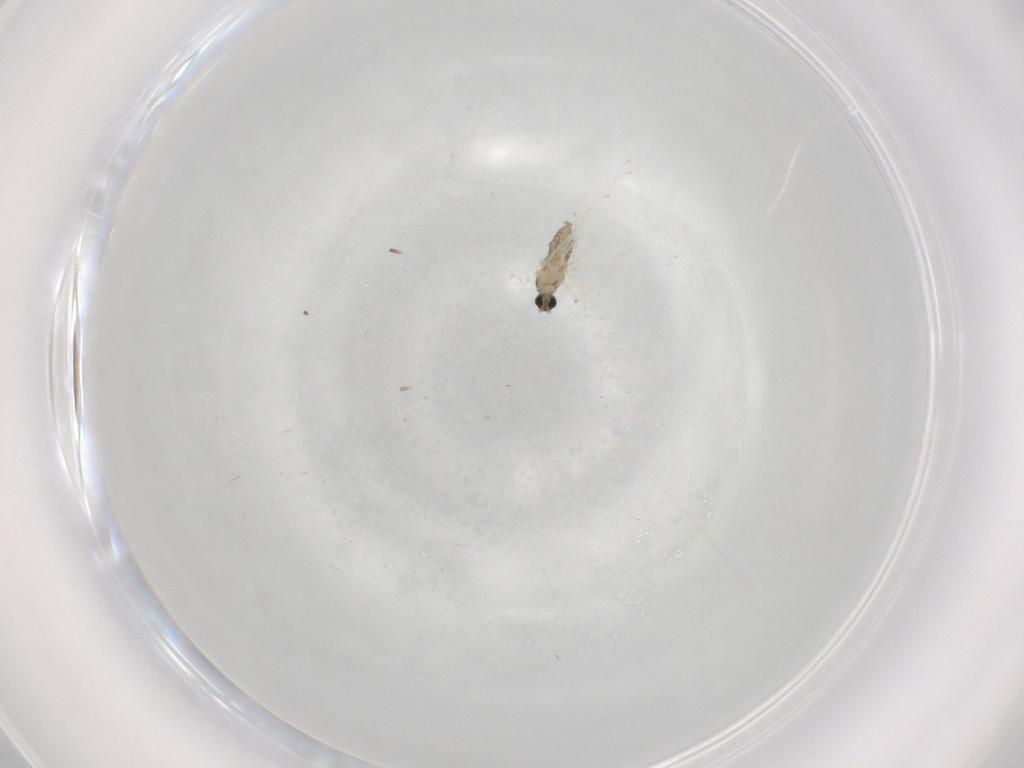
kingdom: Animalia
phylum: Arthropoda
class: Insecta
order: Diptera
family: Cecidomyiidae
